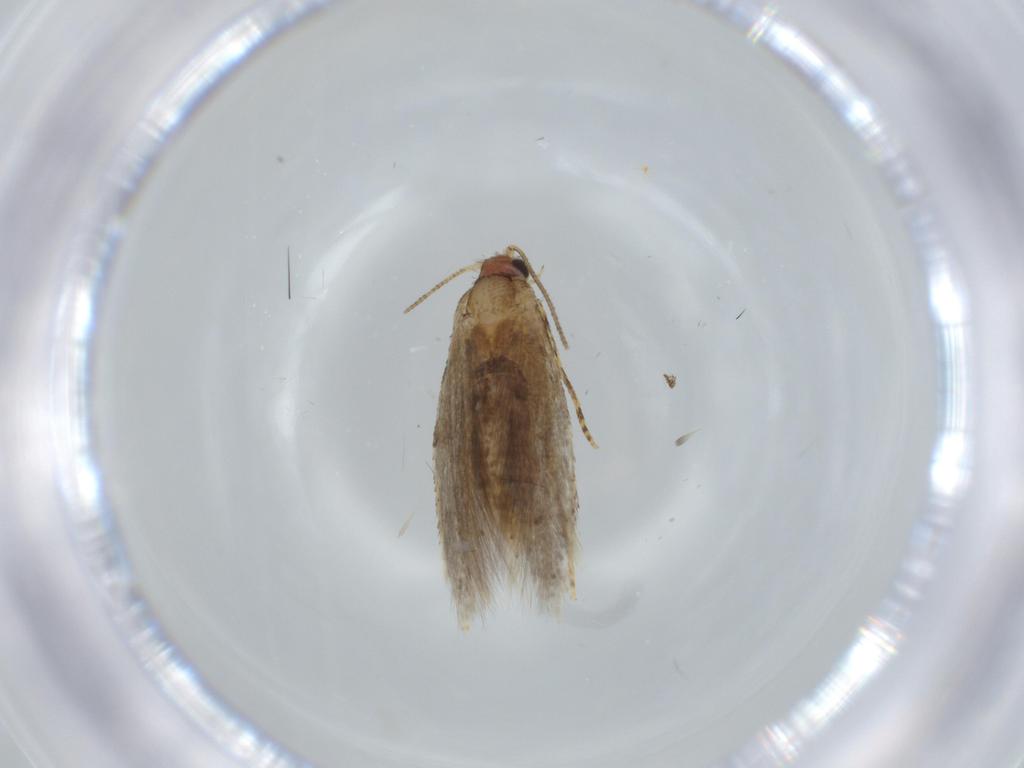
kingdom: Animalia
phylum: Arthropoda
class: Insecta
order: Lepidoptera
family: Meessiidae
